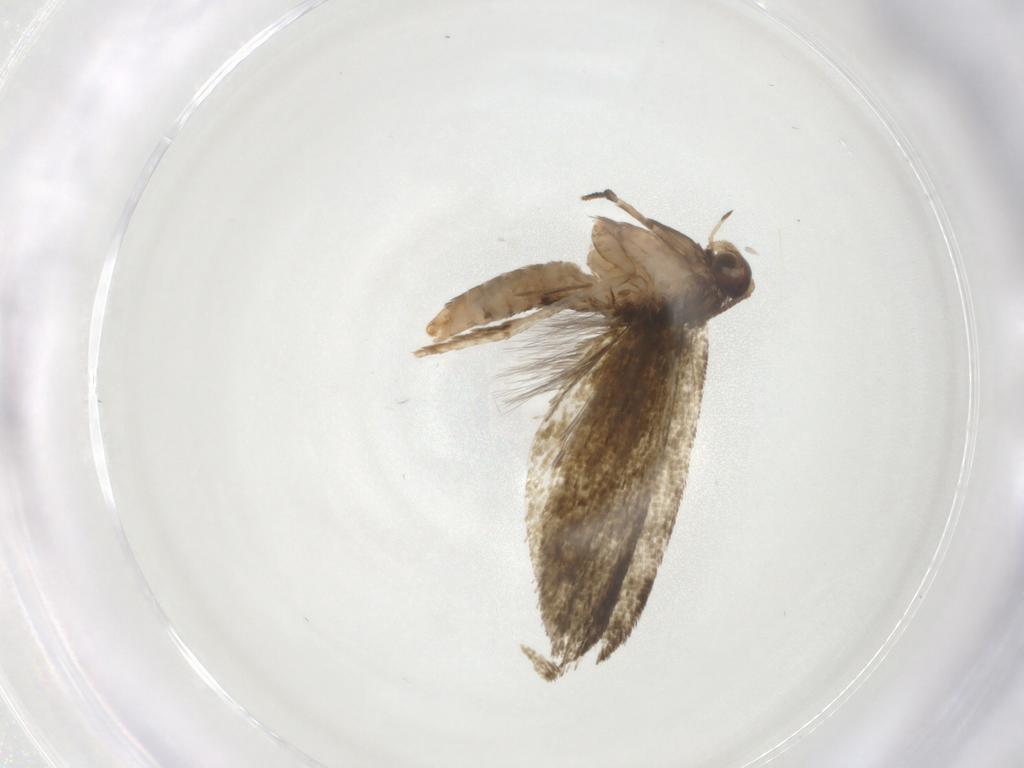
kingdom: Animalia
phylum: Arthropoda
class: Insecta
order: Lepidoptera
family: Tineidae
